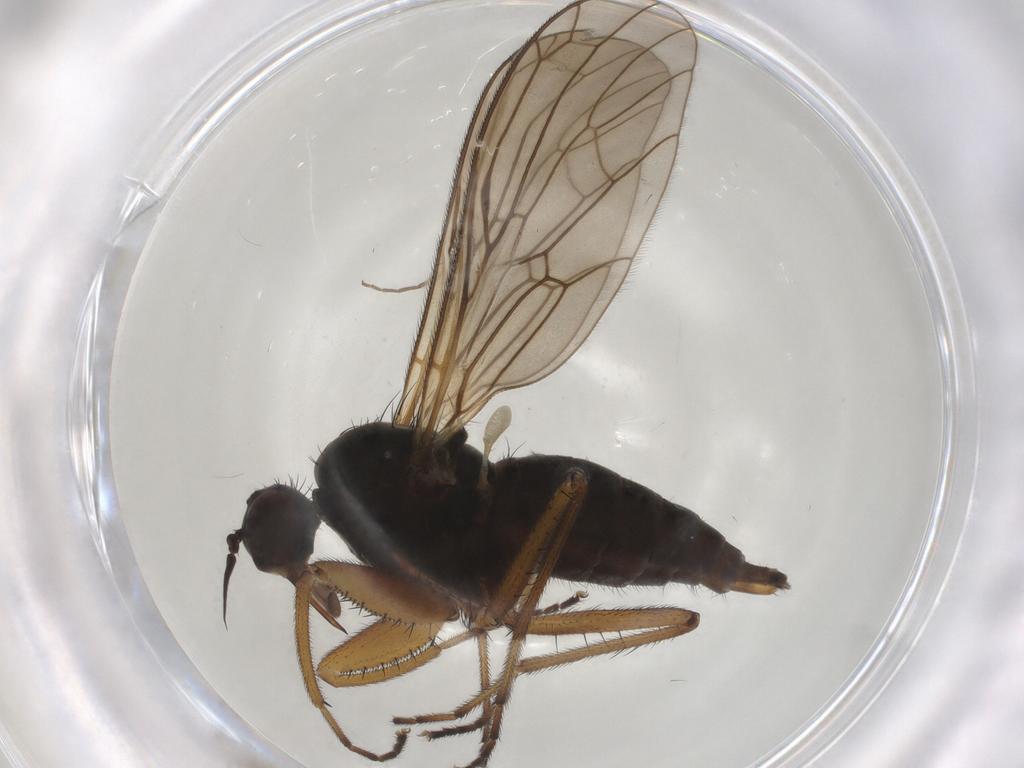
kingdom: Animalia
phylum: Arthropoda
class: Insecta
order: Diptera
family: Empididae
